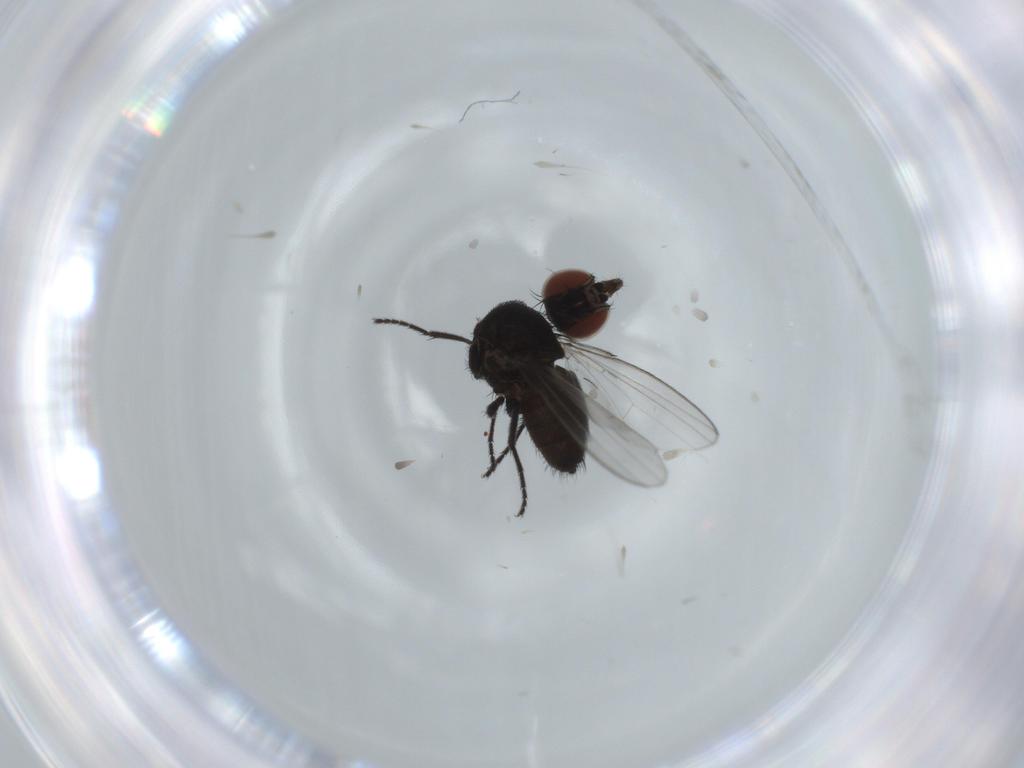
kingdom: Animalia
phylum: Arthropoda
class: Insecta
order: Diptera
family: Milichiidae
